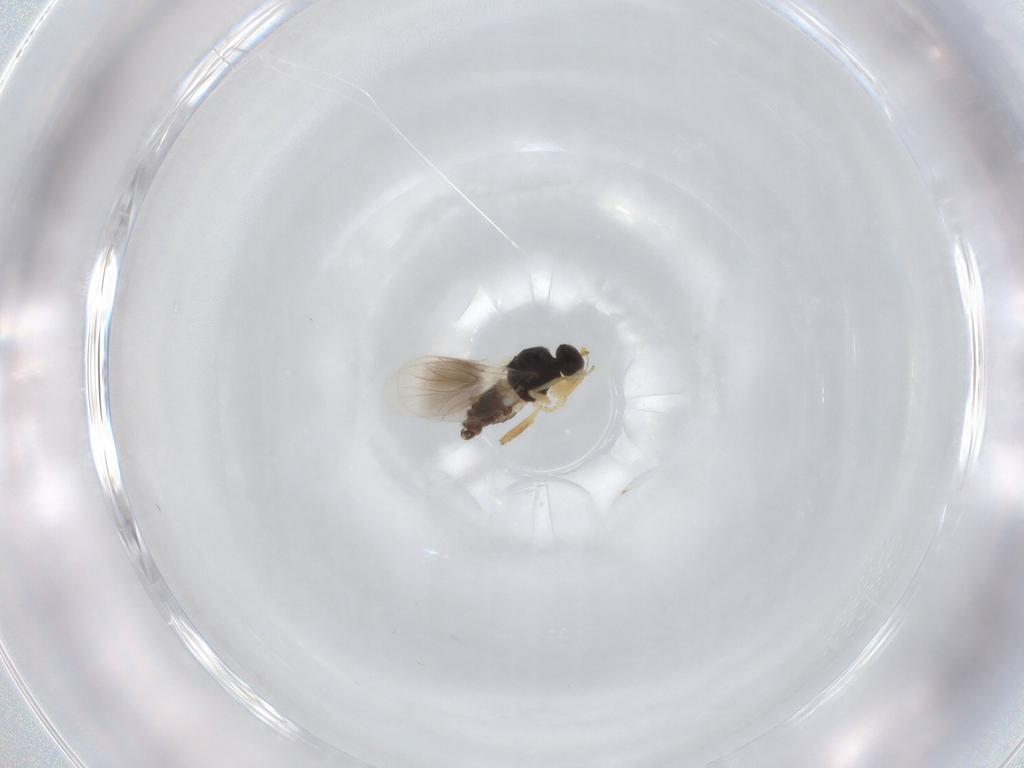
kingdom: Animalia
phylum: Arthropoda
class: Insecta
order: Diptera
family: Hybotidae
